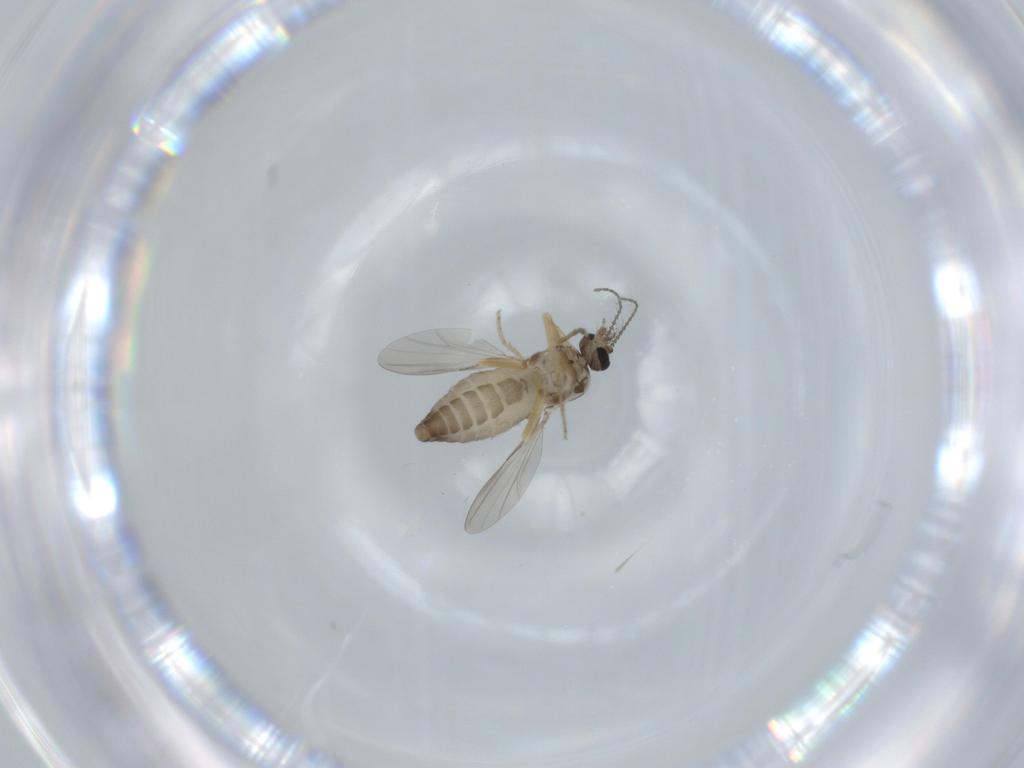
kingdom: Animalia
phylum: Arthropoda
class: Insecta
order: Diptera
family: Ceratopogonidae
